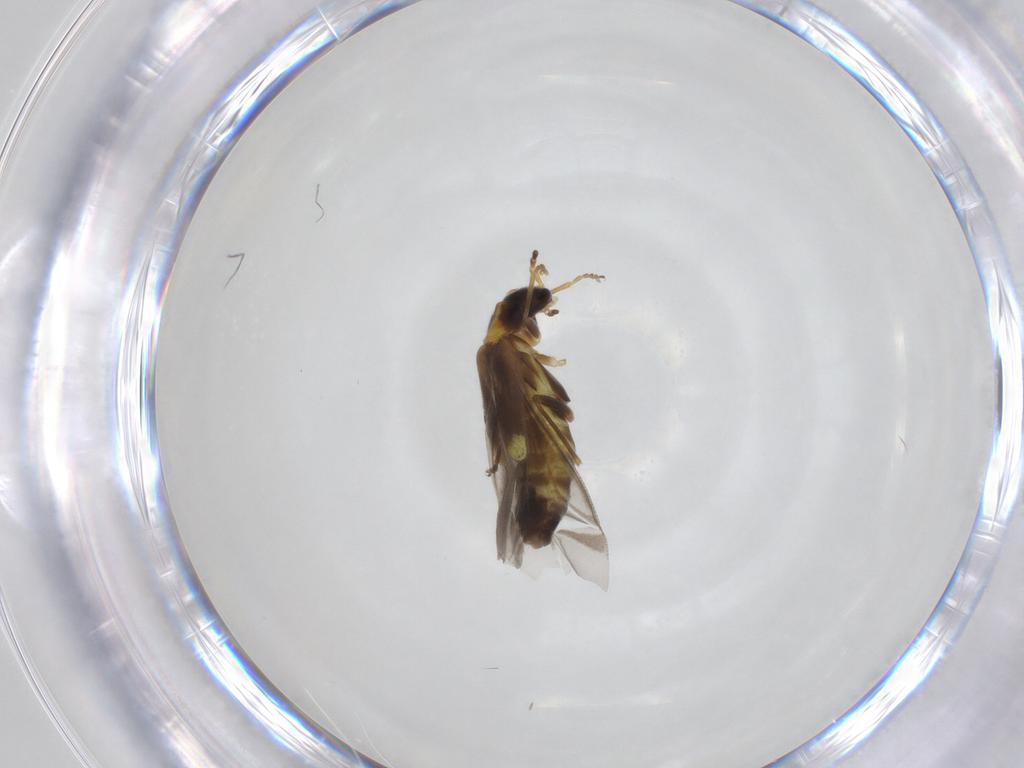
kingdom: Animalia
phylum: Arthropoda
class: Insecta
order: Coleoptera
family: Cantharidae
